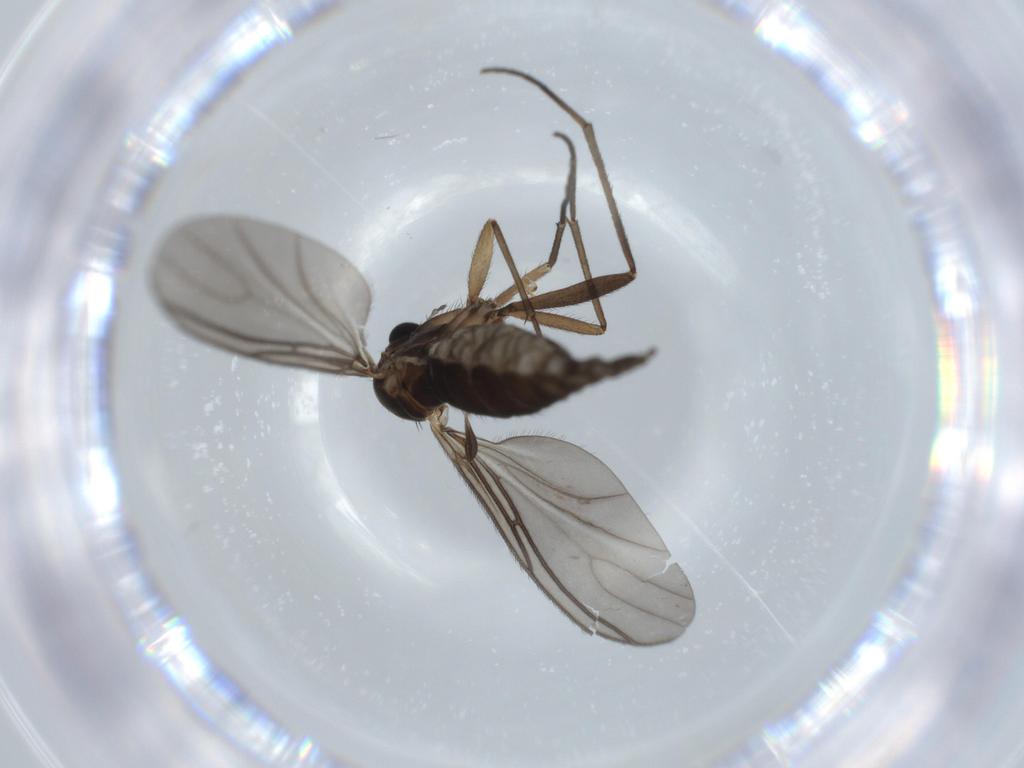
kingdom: Animalia
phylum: Arthropoda
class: Insecta
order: Diptera
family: Sciaridae
